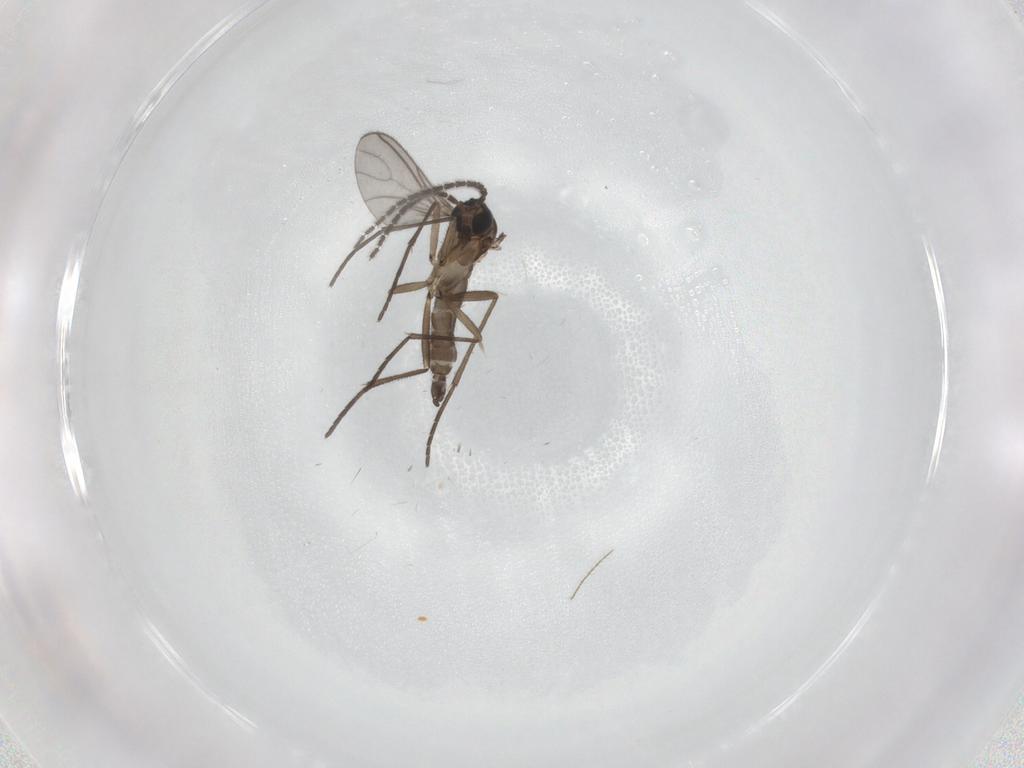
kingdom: Animalia
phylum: Arthropoda
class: Insecta
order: Diptera
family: Sciaridae
